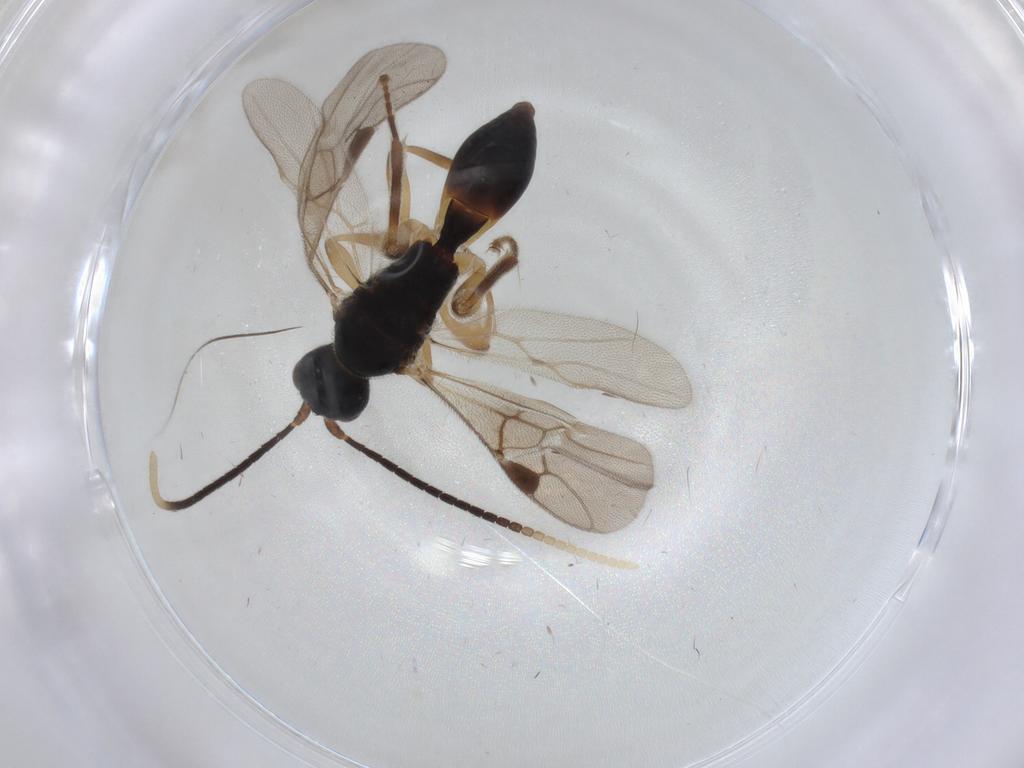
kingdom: Animalia
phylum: Arthropoda
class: Insecta
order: Hymenoptera
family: Braconidae
